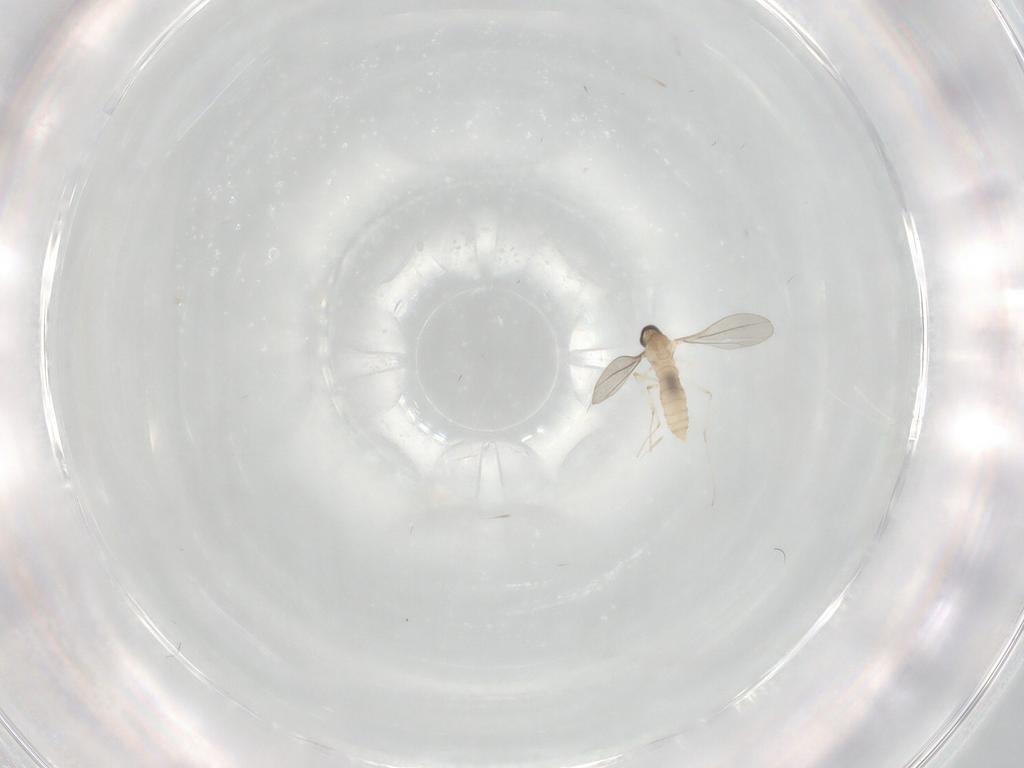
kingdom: Animalia
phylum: Arthropoda
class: Insecta
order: Diptera
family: Cecidomyiidae
